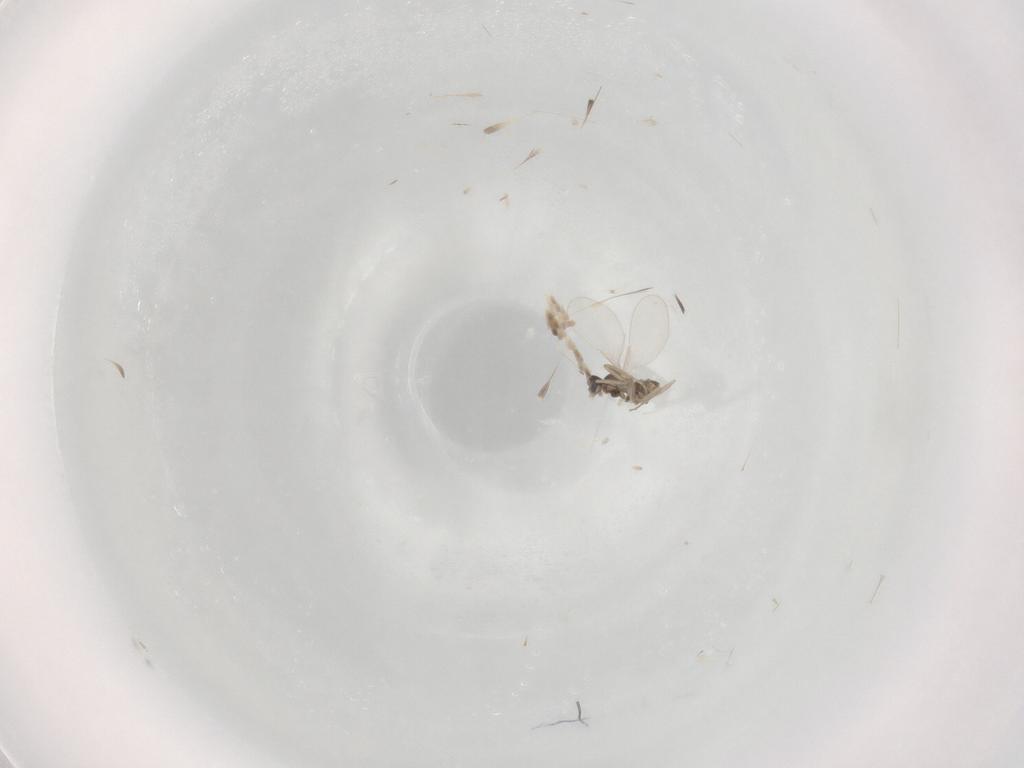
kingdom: Animalia
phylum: Arthropoda
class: Insecta
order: Diptera
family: Cecidomyiidae
